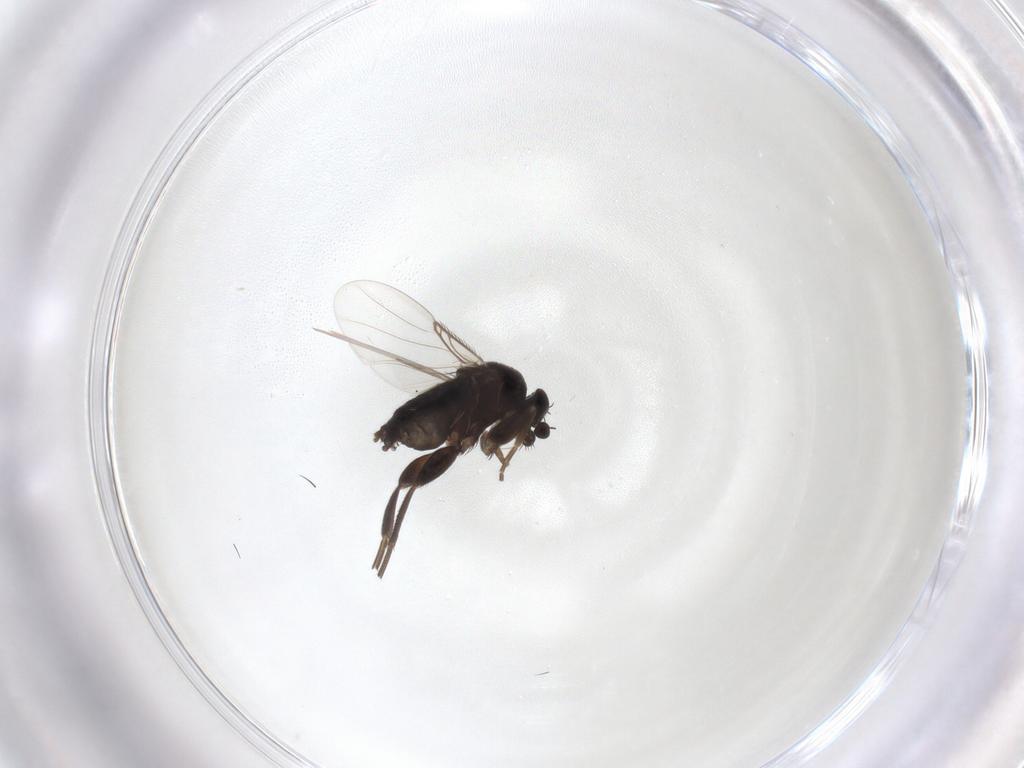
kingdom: Animalia
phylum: Arthropoda
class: Insecta
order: Diptera
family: Phoridae
